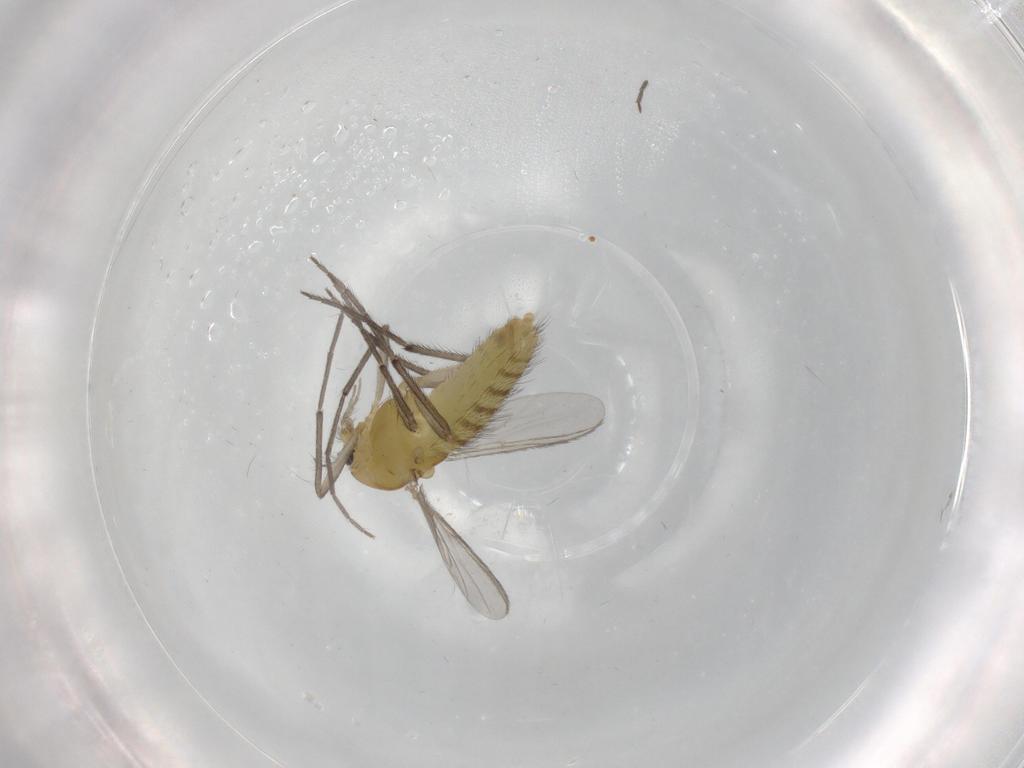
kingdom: Animalia
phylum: Arthropoda
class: Insecta
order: Diptera
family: Chironomidae
